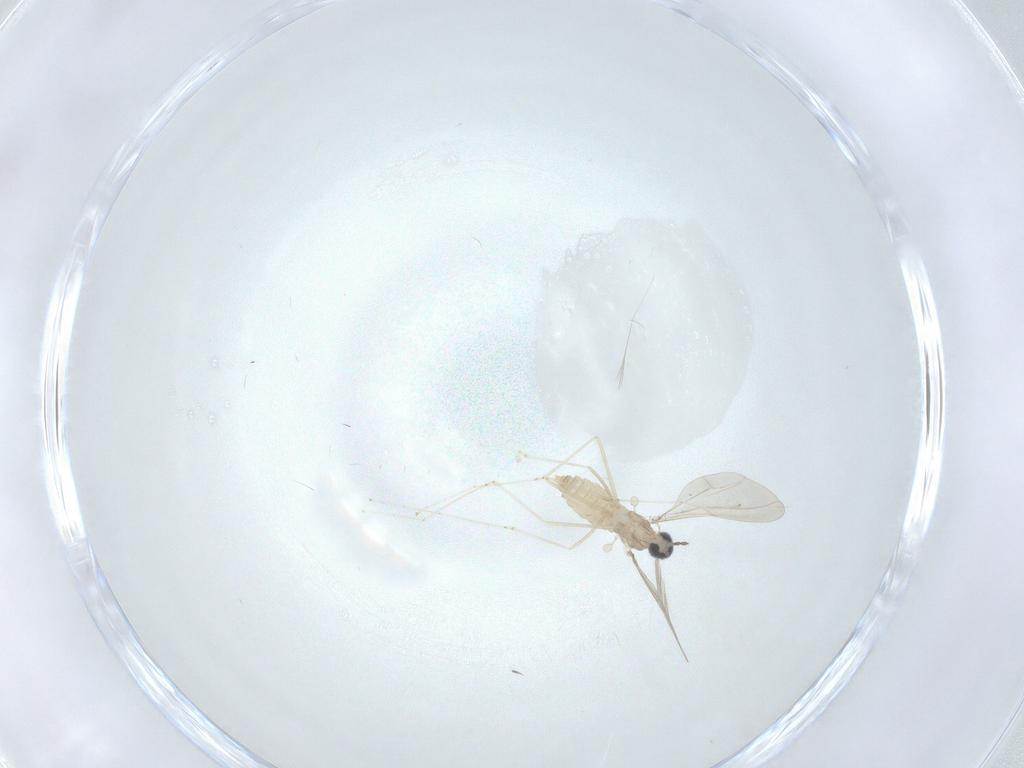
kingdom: Animalia
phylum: Arthropoda
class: Insecta
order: Diptera
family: Cecidomyiidae
